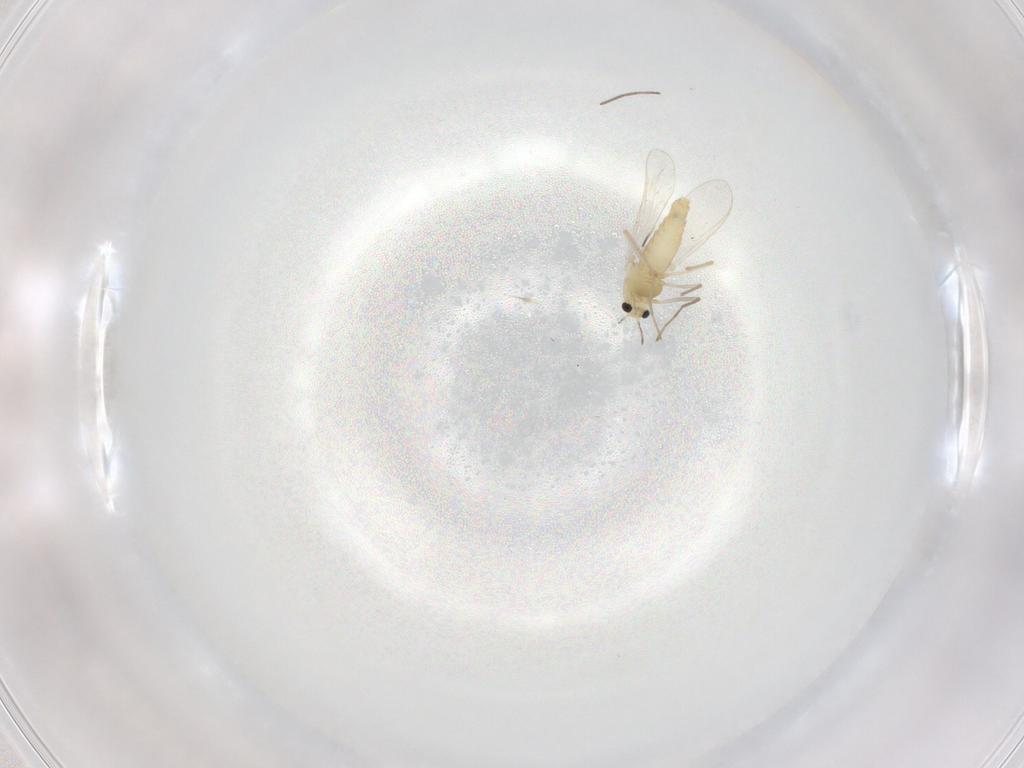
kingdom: Animalia
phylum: Arthropoda
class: Insecta
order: Diptera
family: Chironomidae
